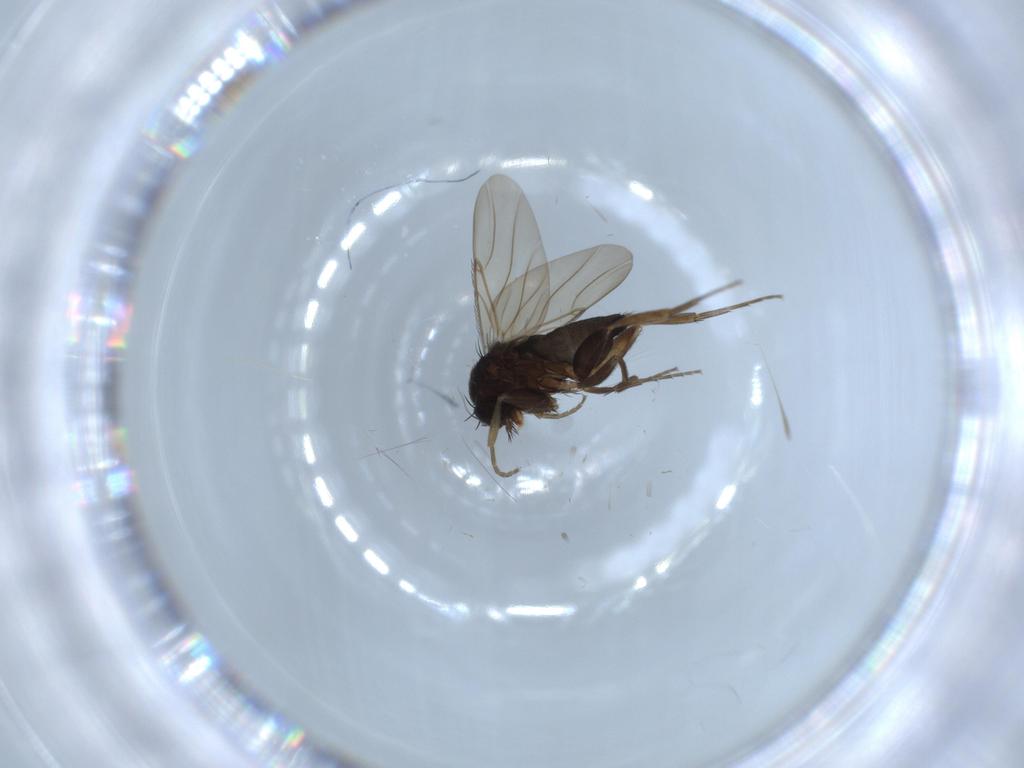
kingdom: Animalia
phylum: Arthropoda
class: Insecta
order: Diptera
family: Phoridae
